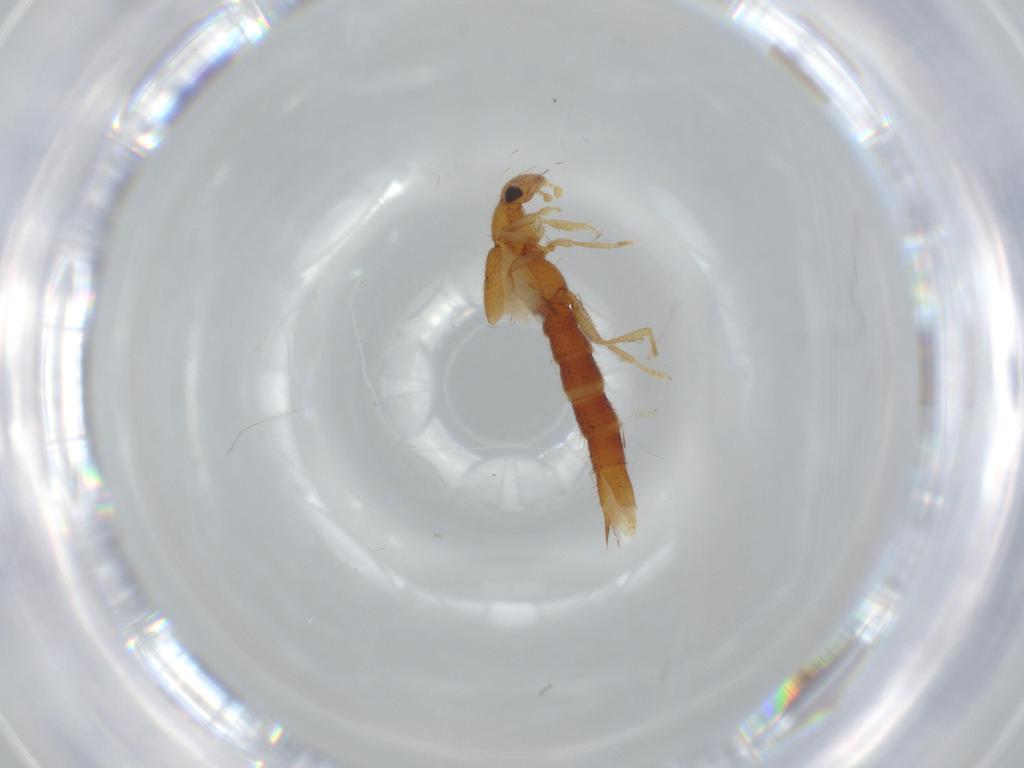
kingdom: Animalia
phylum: Arthropoda
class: Insecta
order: Coleoptera
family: Staphylinidae
